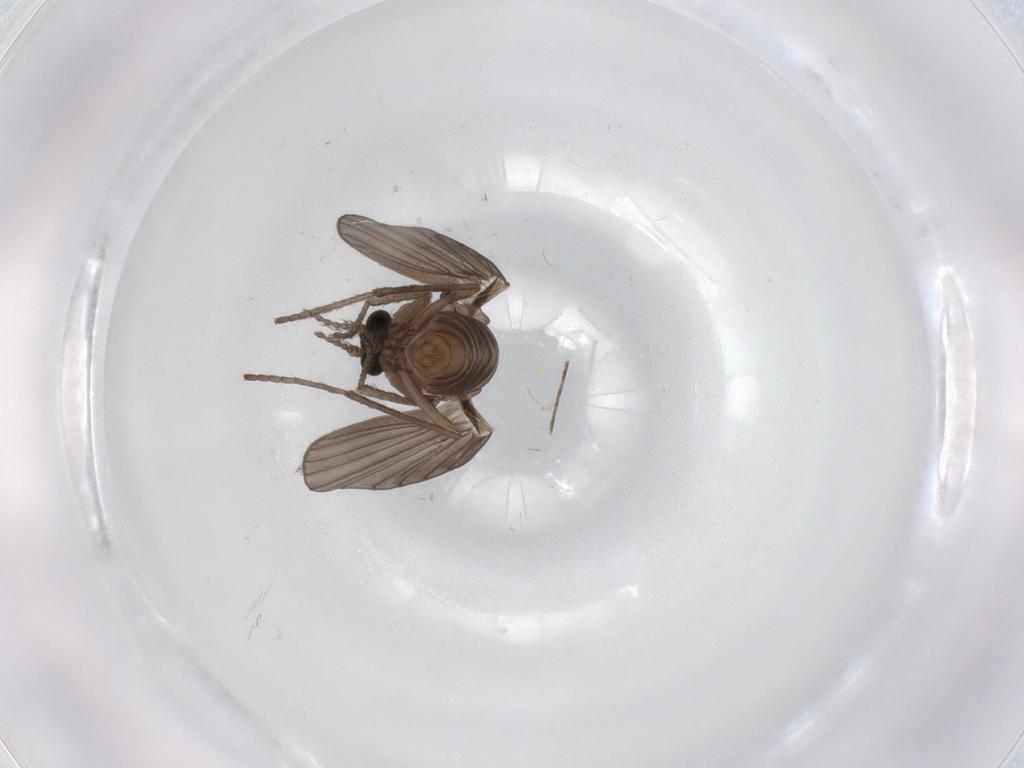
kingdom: Animalia
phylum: Arthropoda
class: Insecta
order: Diptera
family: Psychodidae
